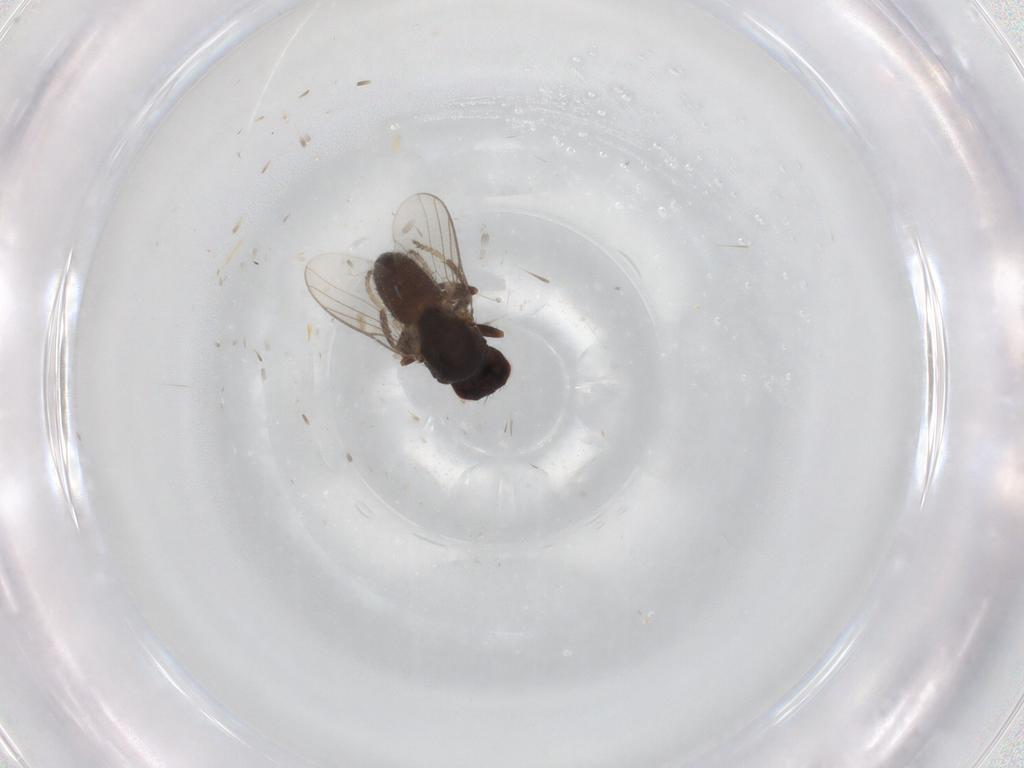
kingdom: Animalia
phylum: Arthropoda
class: Insecta
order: Diptera
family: Chloropidae
